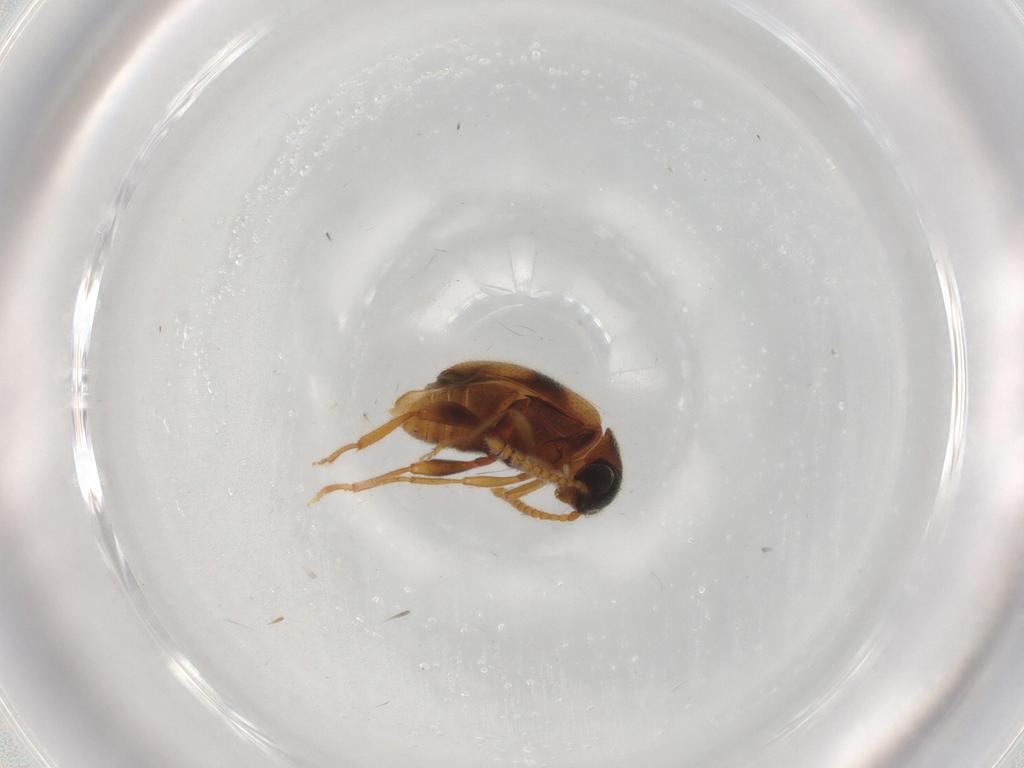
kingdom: Animalia
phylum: Arthropoda
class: Insecta
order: Coleoptera
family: Aderidae
